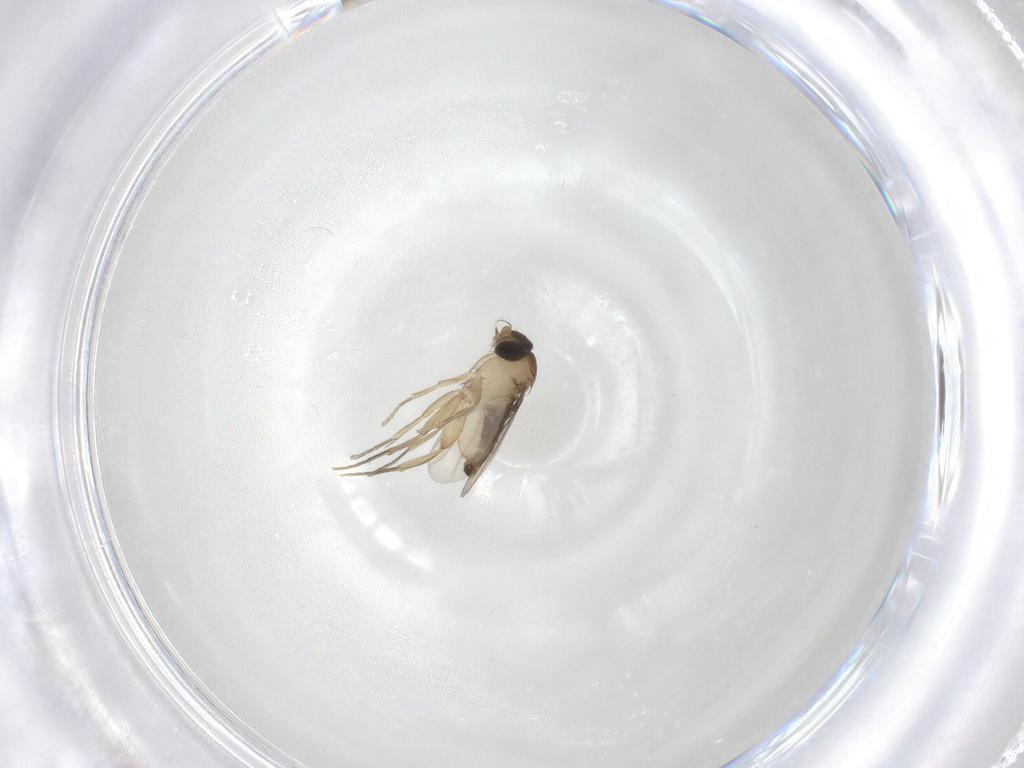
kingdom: Animalia
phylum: Arthropoda
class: Insecta
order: Diptera
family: Phoridae
